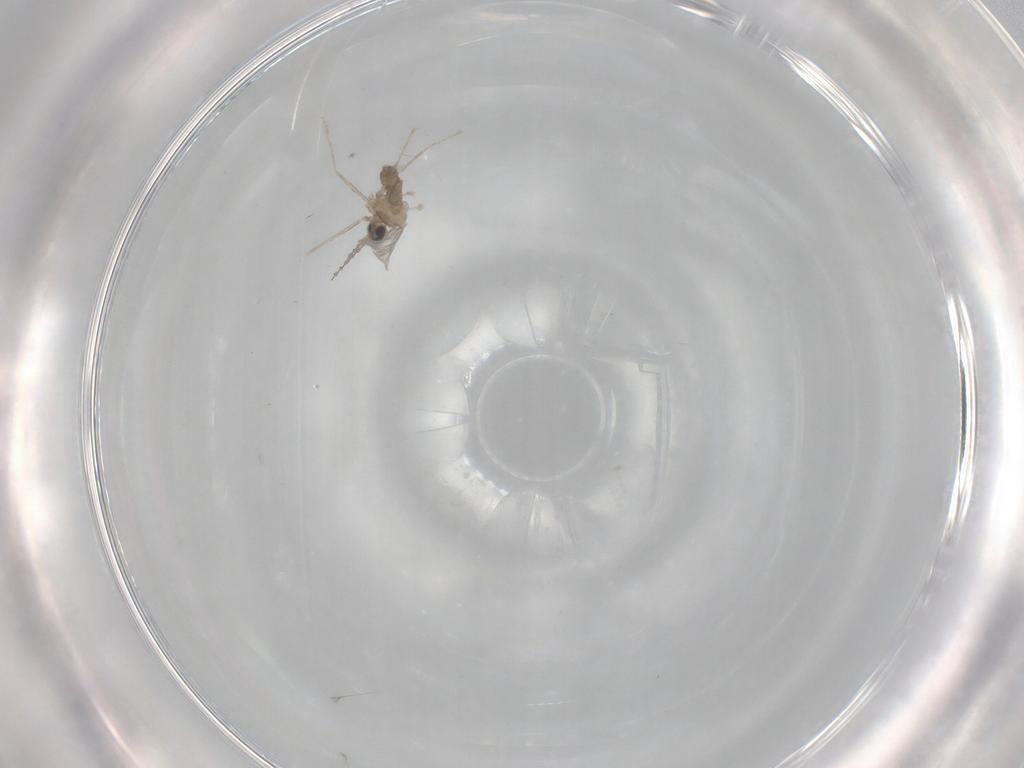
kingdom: Animalia
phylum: Arthropoda
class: Insecta
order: Diptera
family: Cecidomyiidae
